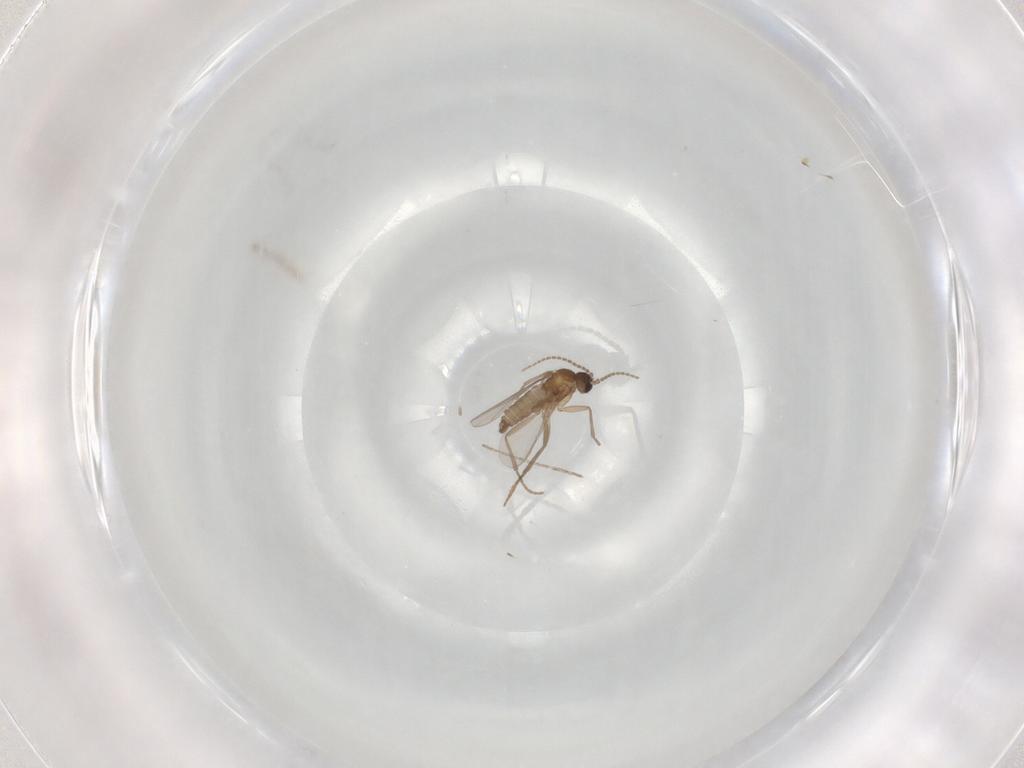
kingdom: Animalia
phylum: Arthropoda
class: Insecta
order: Diptera
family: Sciaridae
